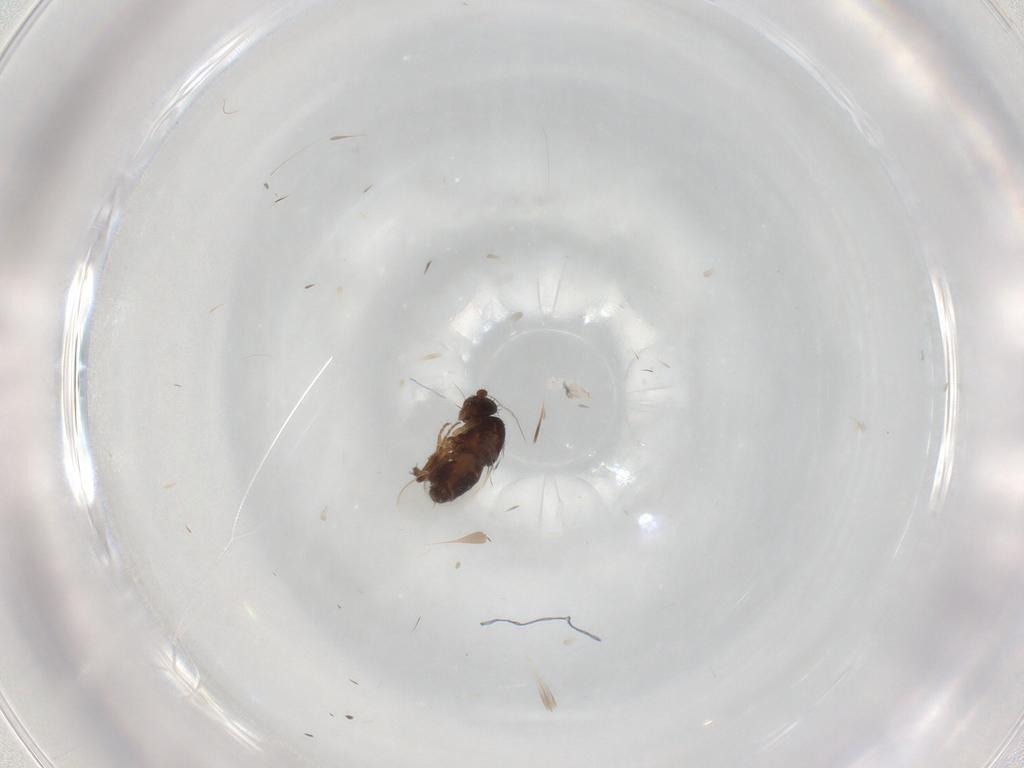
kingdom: Animalia
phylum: Arthropoda
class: Insecta
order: Diptera
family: Sphaeroceridae
